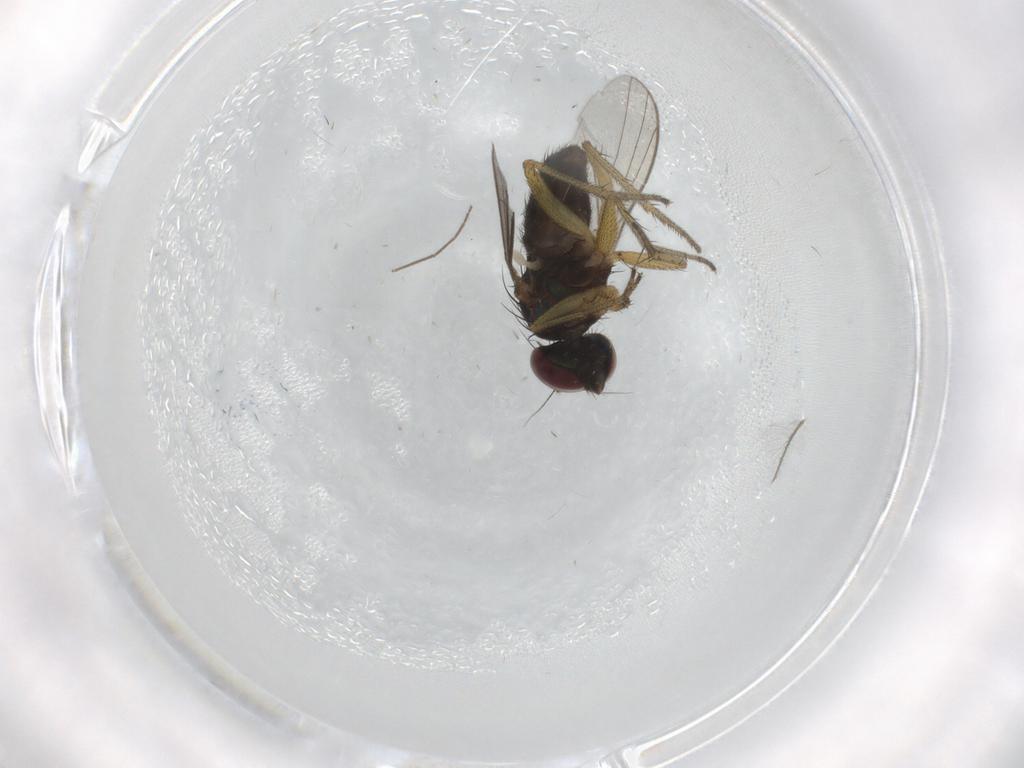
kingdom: Animalia
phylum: Arthropoda
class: Insecta
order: Diptera
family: Dolichopodidae
